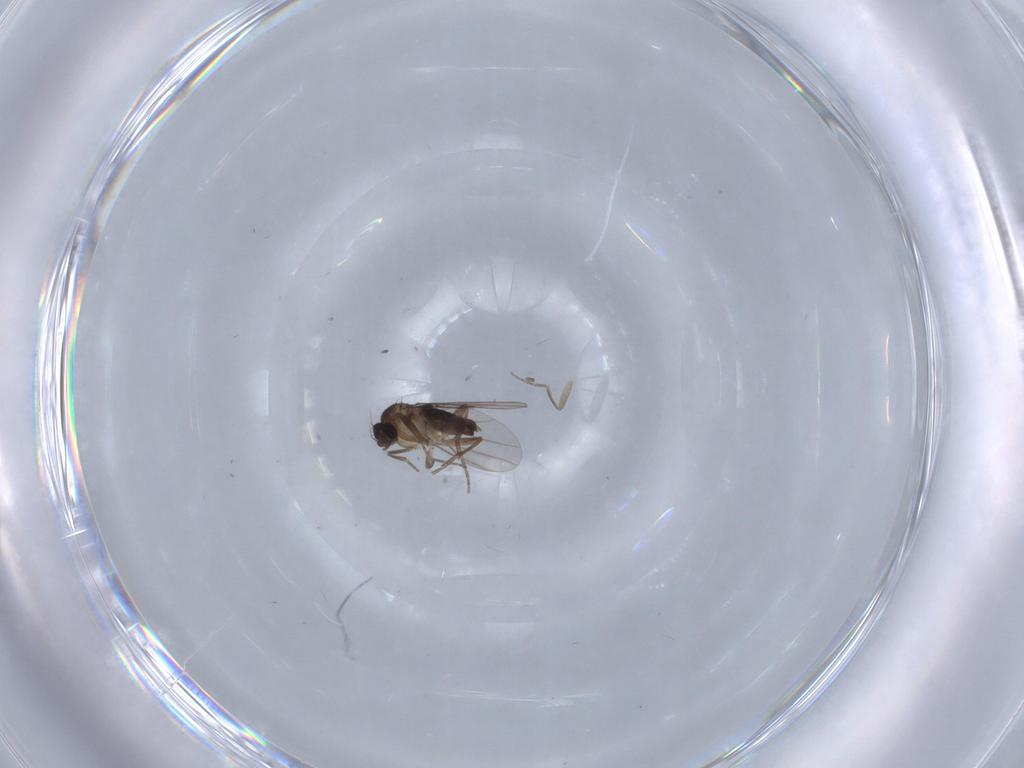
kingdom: Animalia
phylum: Arthropoda
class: Insecta
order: Diptera
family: Phoridae
